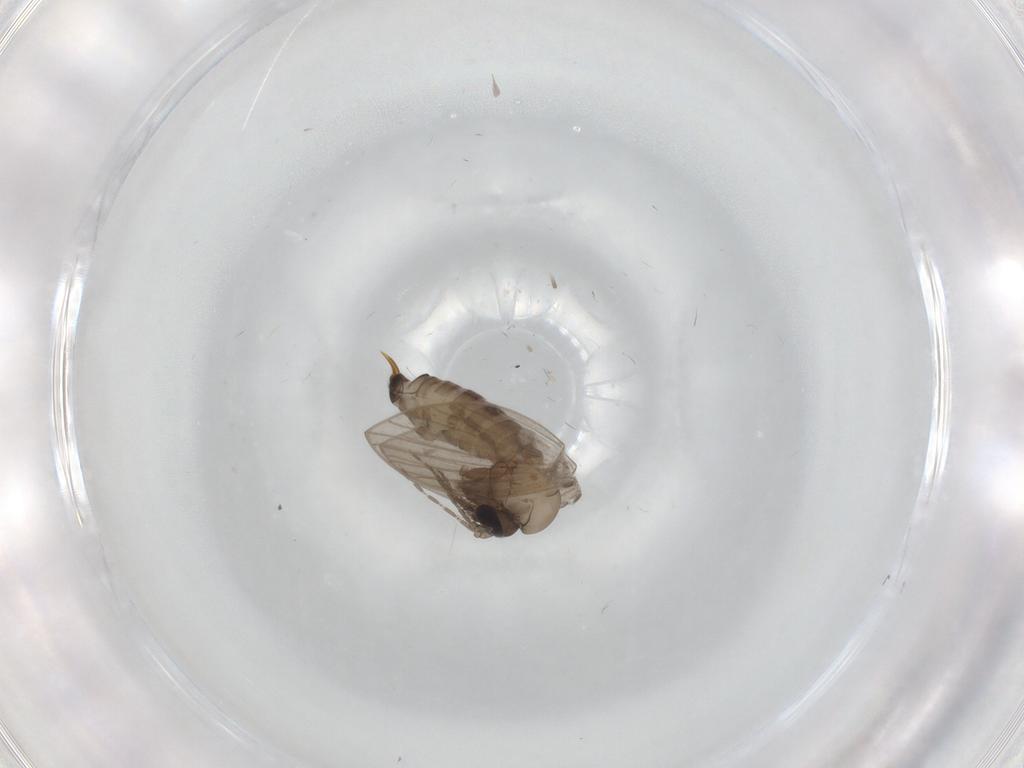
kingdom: Animalia
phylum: Arthropoda
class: Insecta
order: Diptera
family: Psychodidae
